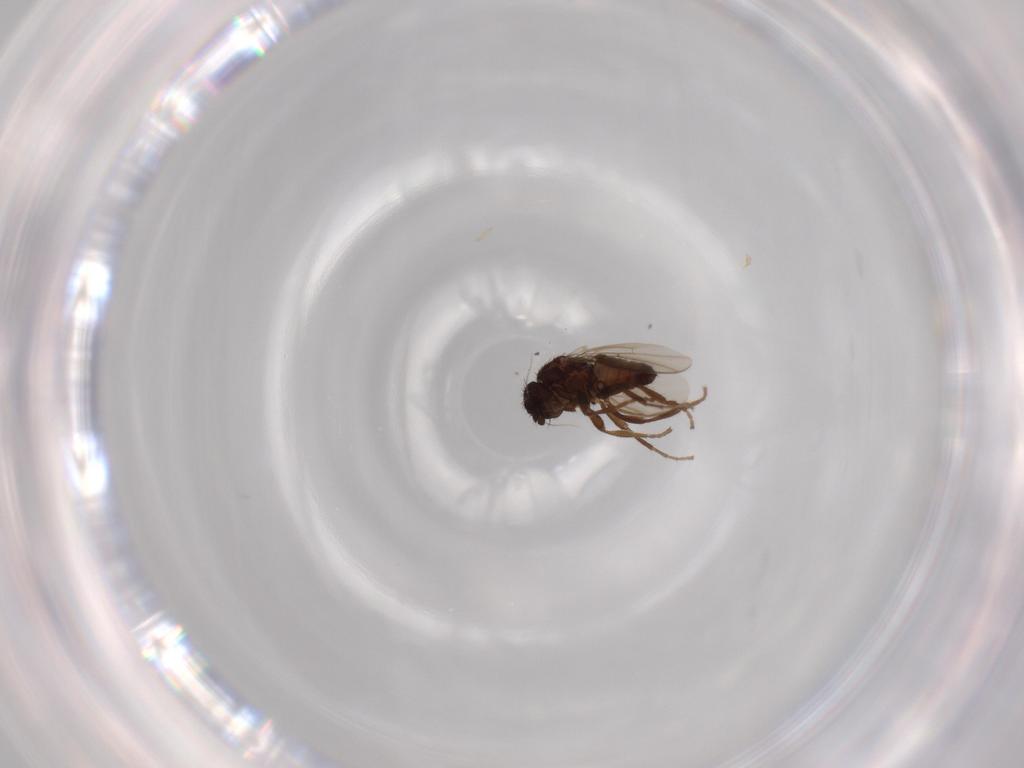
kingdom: Animalia
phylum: Arthropoda
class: Insecta
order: Diptera
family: Sphaeroceridae
